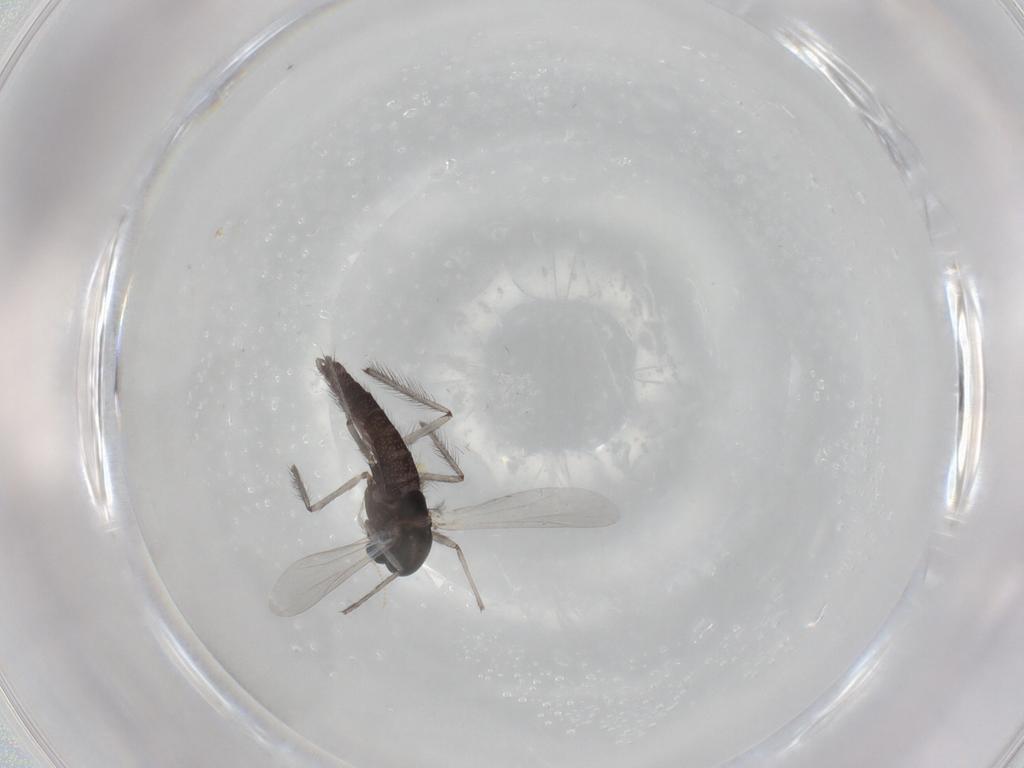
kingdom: Animalia
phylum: Arthropoda
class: Insecta
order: Diptera
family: Chironomidae
